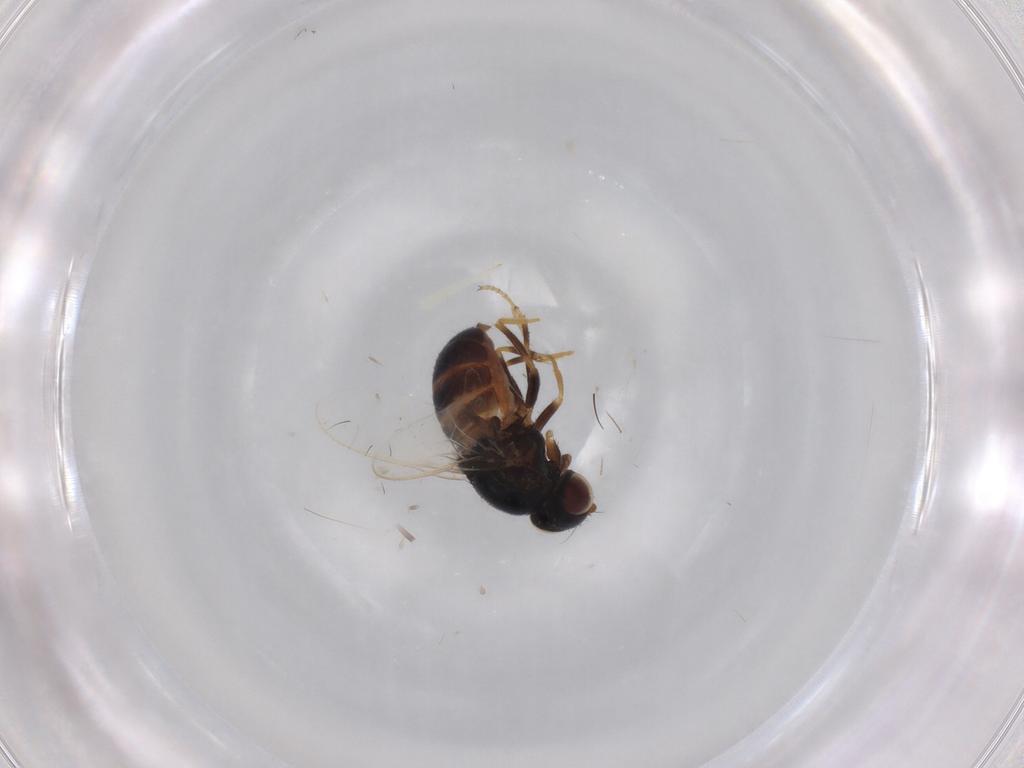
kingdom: Animalia
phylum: Arthropoda
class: Insecta
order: Diptera
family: Chloropidae
